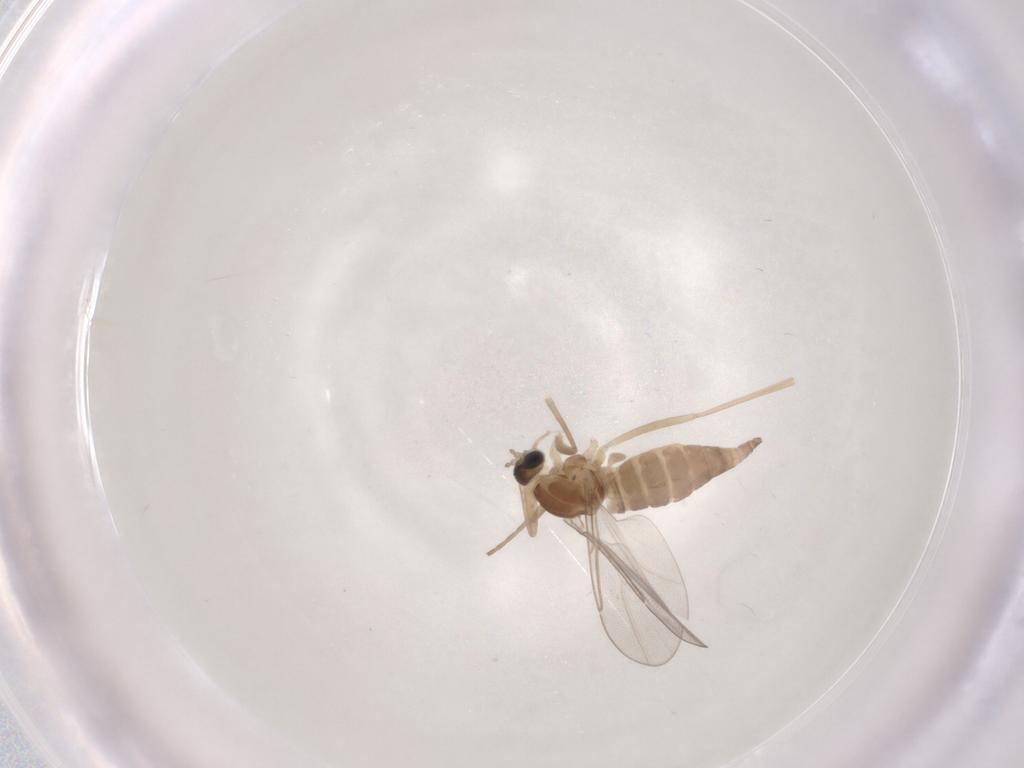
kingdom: Animalia
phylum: Arthropoda
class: Insecta
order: Diptera
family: Cecidomyiidae
